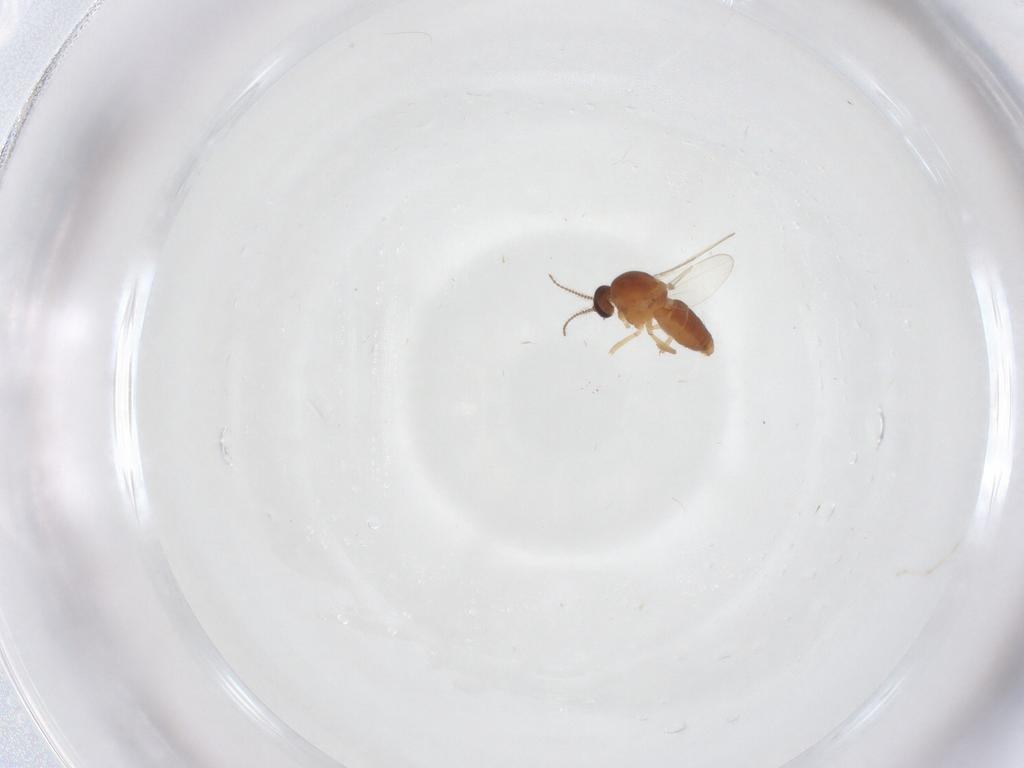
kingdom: Animalia
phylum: Arthropoda
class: Insecta
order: Diptera
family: Ceratopogonidae
